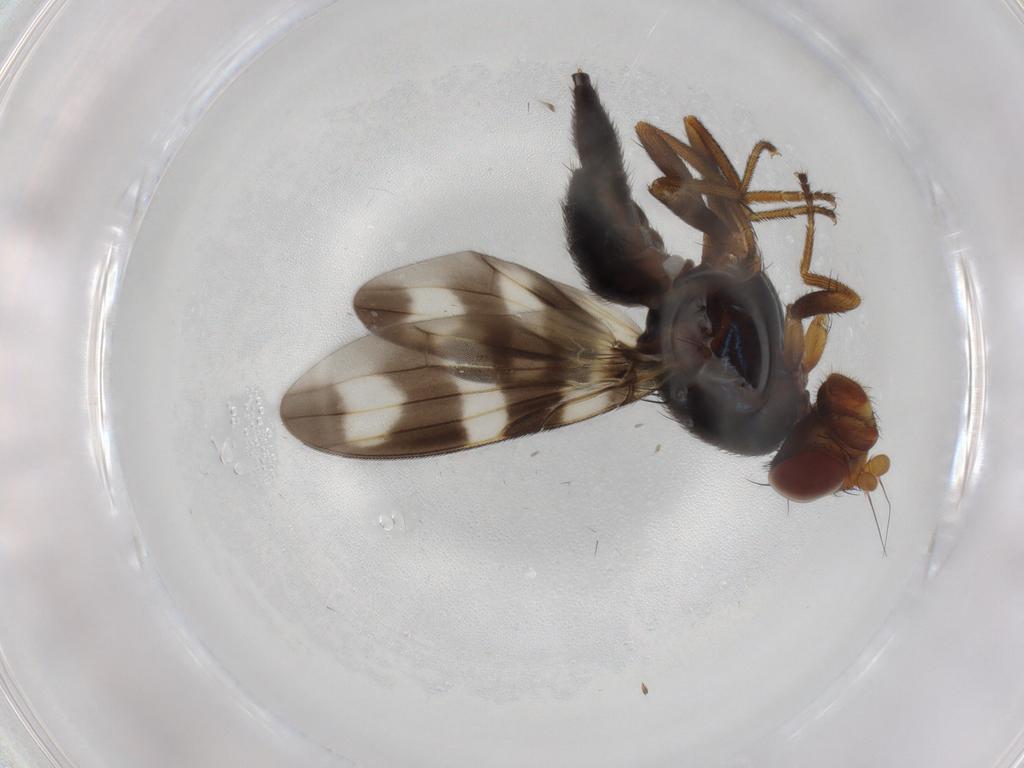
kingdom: Animalia
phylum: Arthropoda
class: Insecta
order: Diptera
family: Ulidiidae
